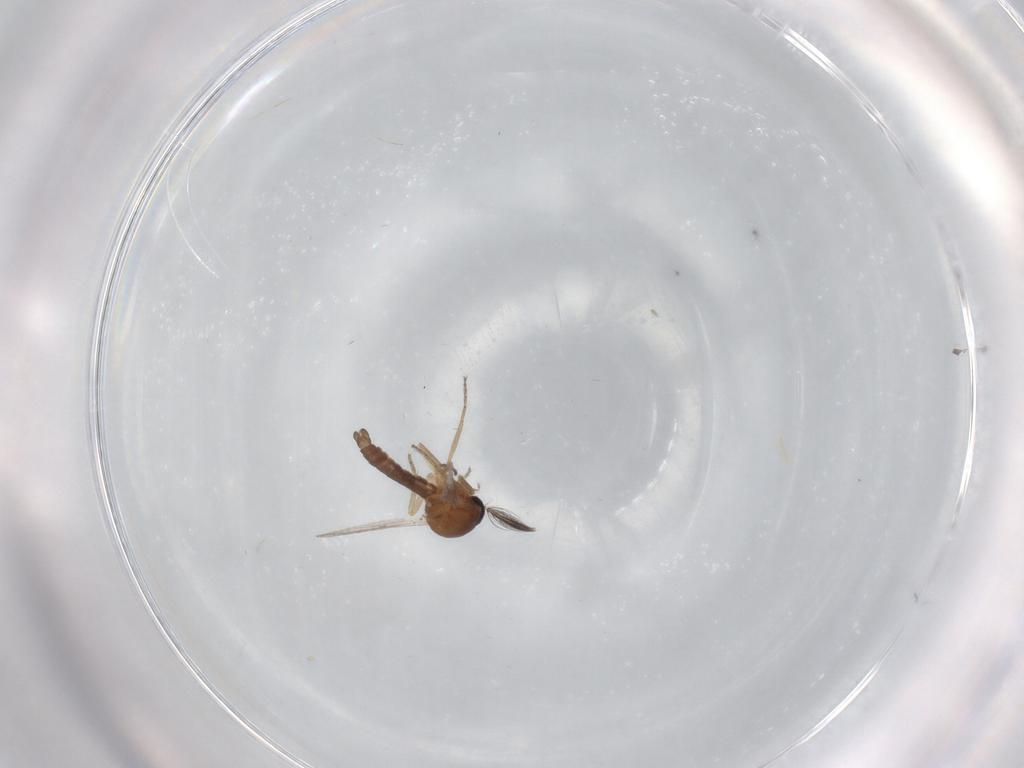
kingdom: Animalia
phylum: Arthropoda
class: Insecta
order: Diptera
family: Ceratopogonidae
